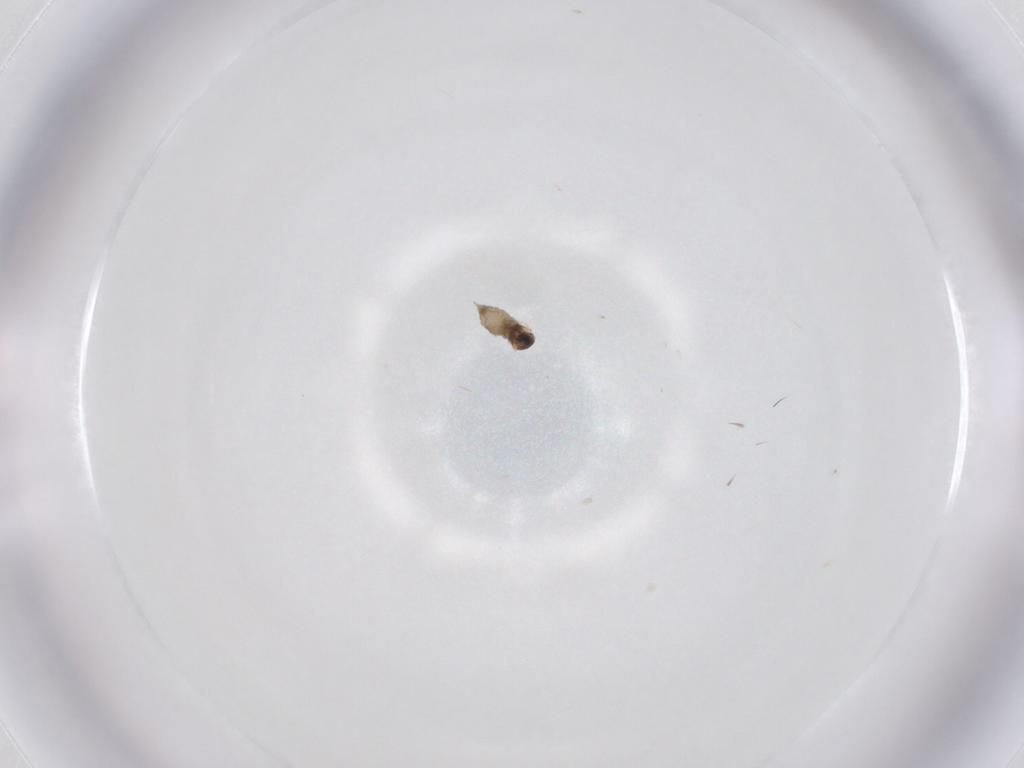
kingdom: Animalia
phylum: Arthropoda
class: Insecta
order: Diptera
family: Cecidomyiidae
